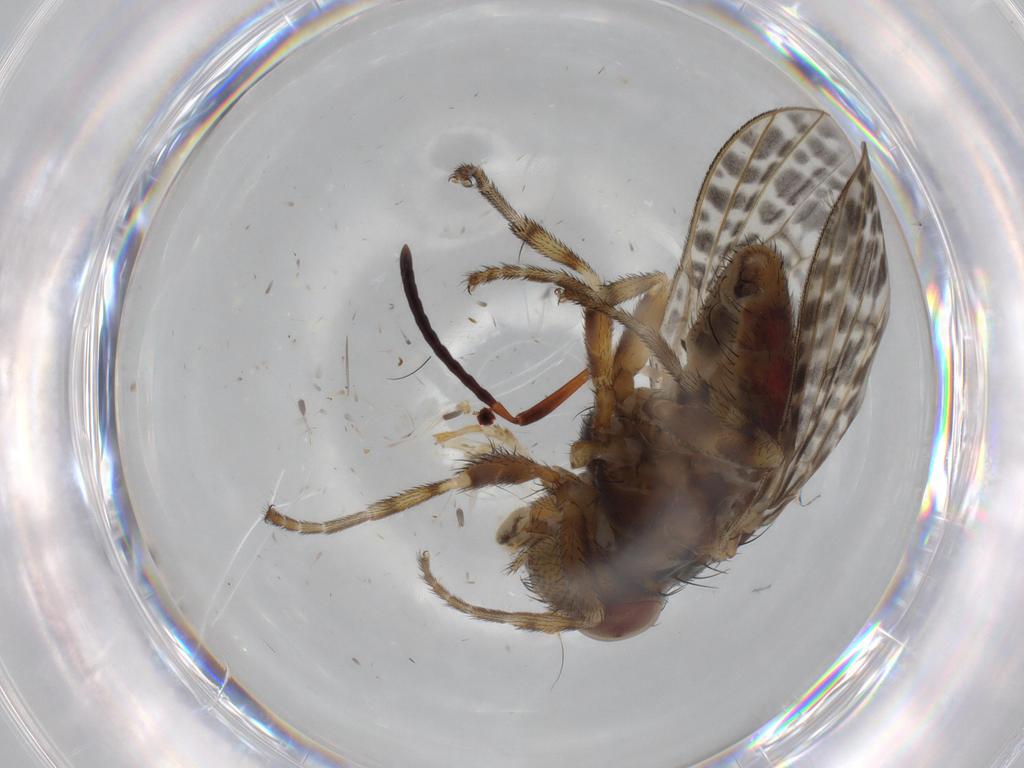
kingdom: Animalia
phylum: Arthropoda
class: Insecta
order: Diptera
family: Odiniidae
